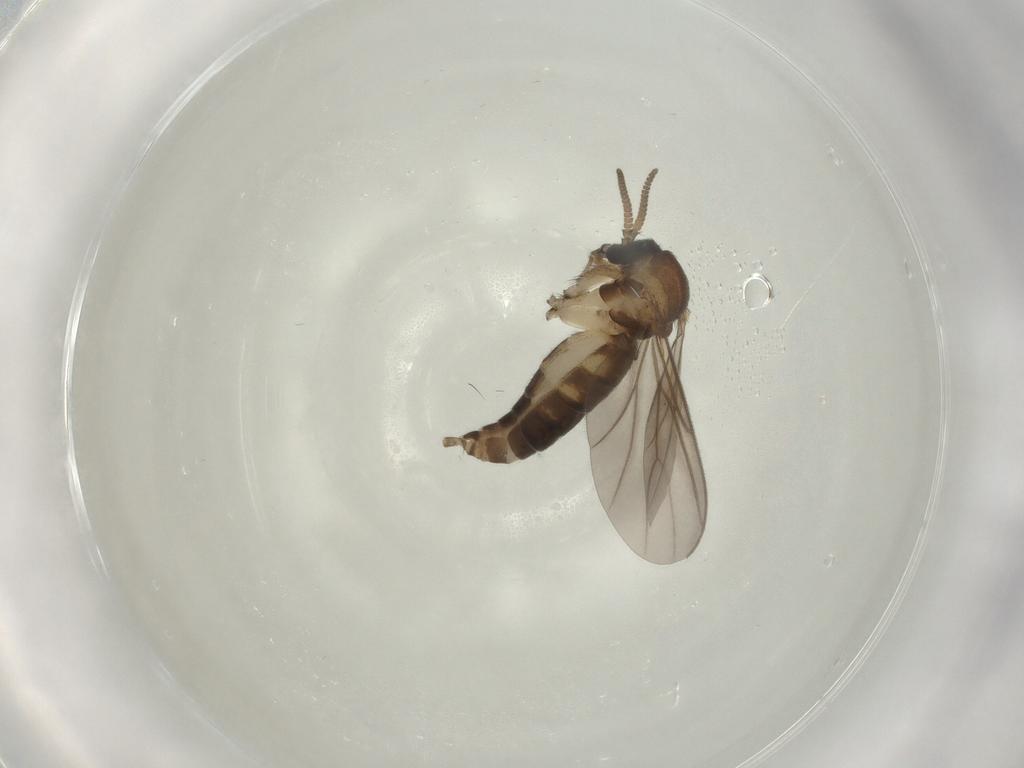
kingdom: Animalia
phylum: Arthropoda
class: Insecta
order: Diptera
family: Mycetophilidae
